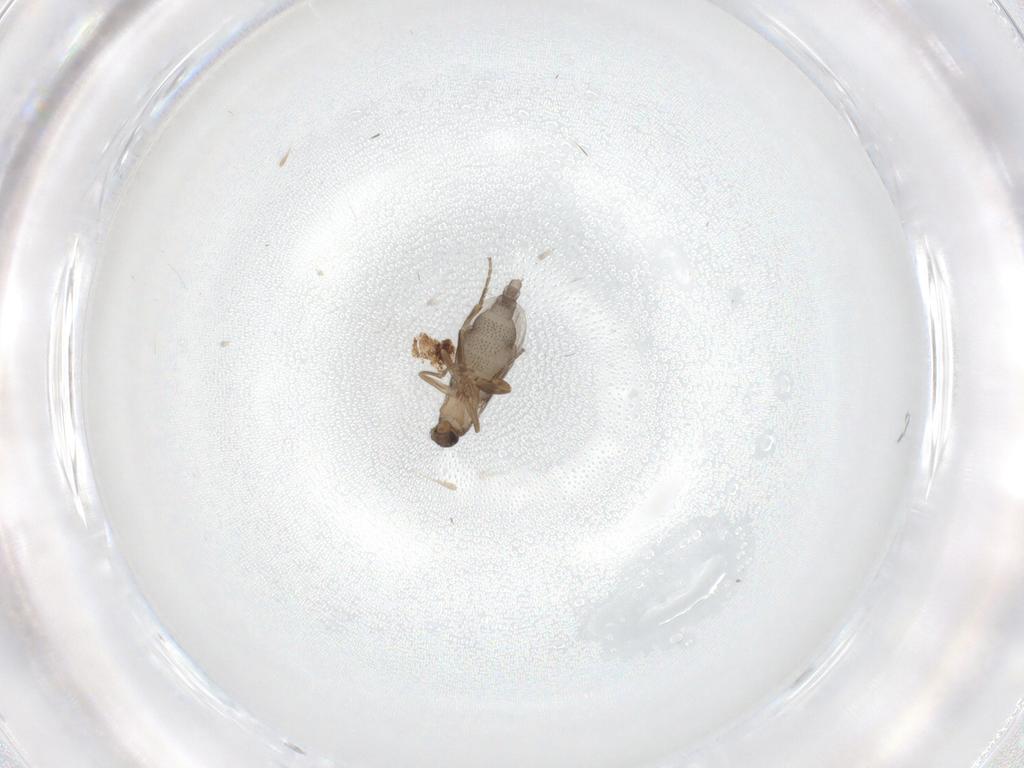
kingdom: Animalia
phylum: Arthropoda
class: Insecta
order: Diptera
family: Phoridae
